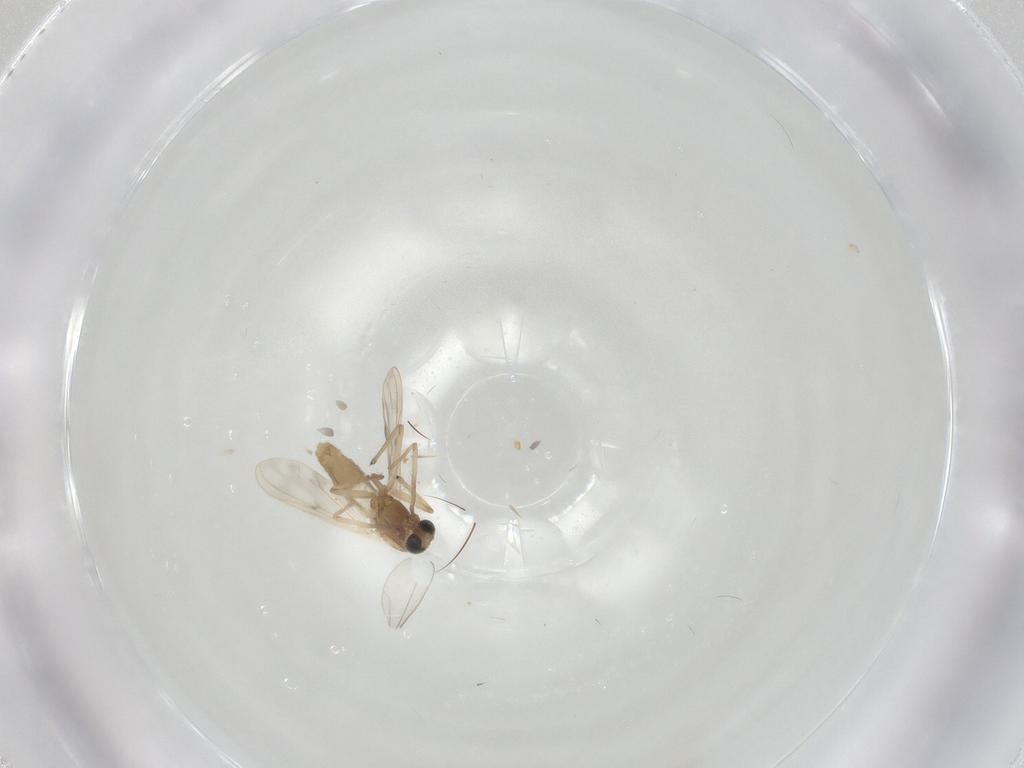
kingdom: Animalia
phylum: Arthropoda
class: Insecta
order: Diptera
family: Chironomidae
